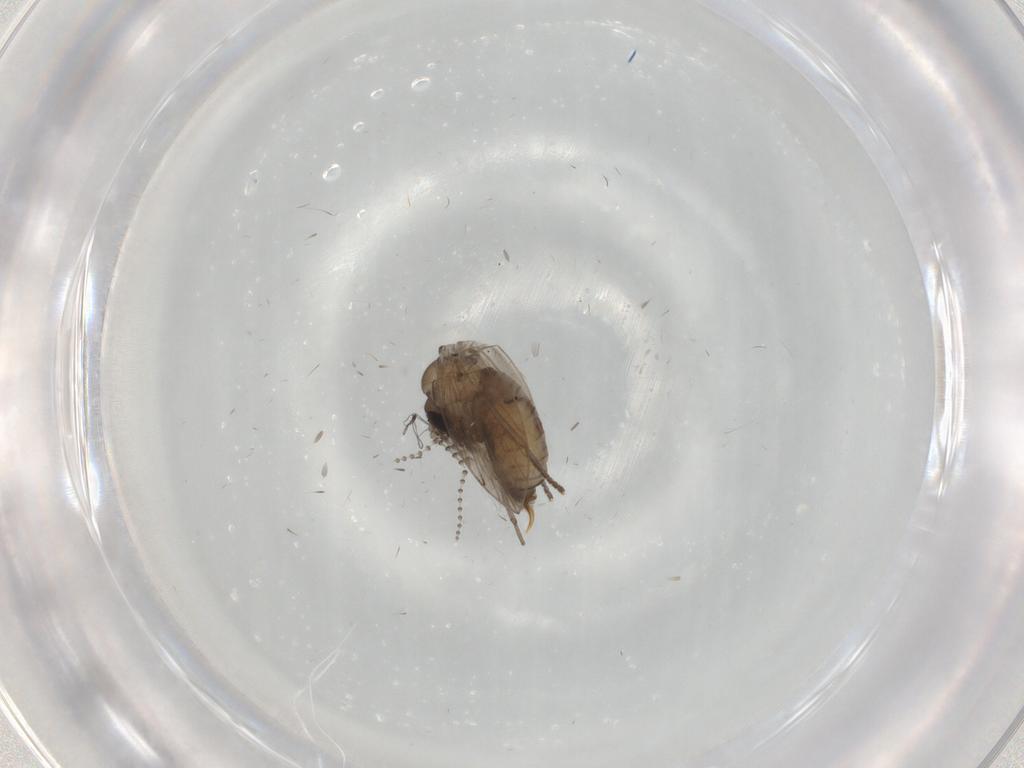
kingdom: Animalia
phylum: Arthropoda
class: Insecta
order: Diptera
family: Psychodidae
